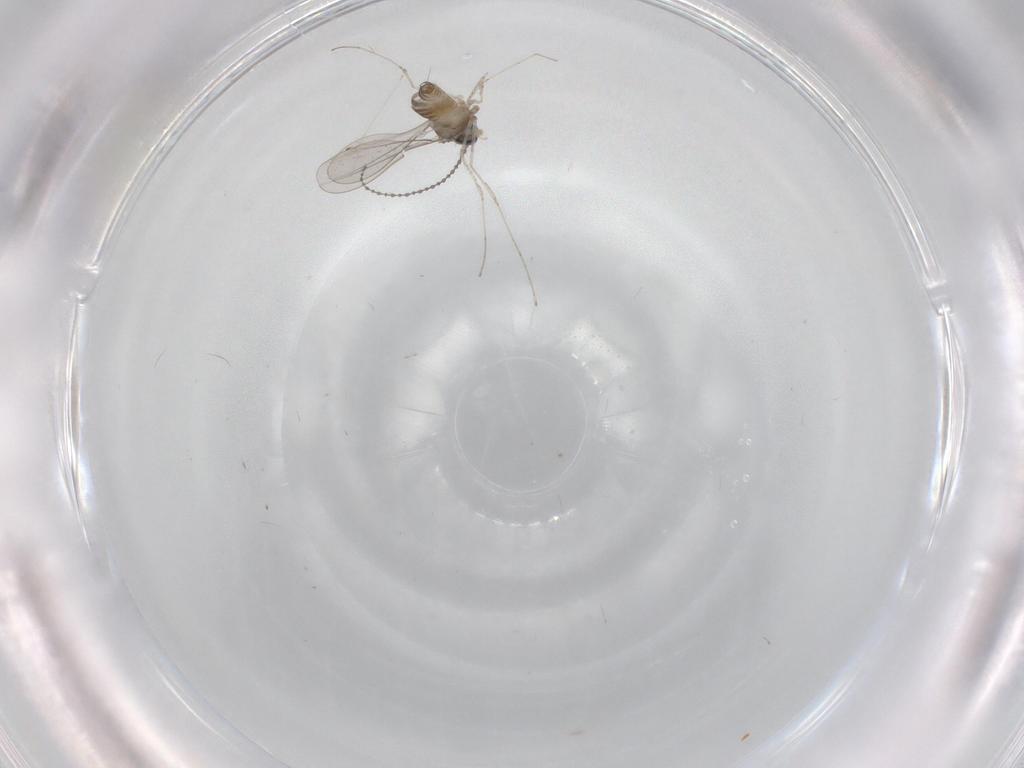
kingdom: Animalia
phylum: Arthropoda
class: Insecta
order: Diptera
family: Cecidomyiidae
